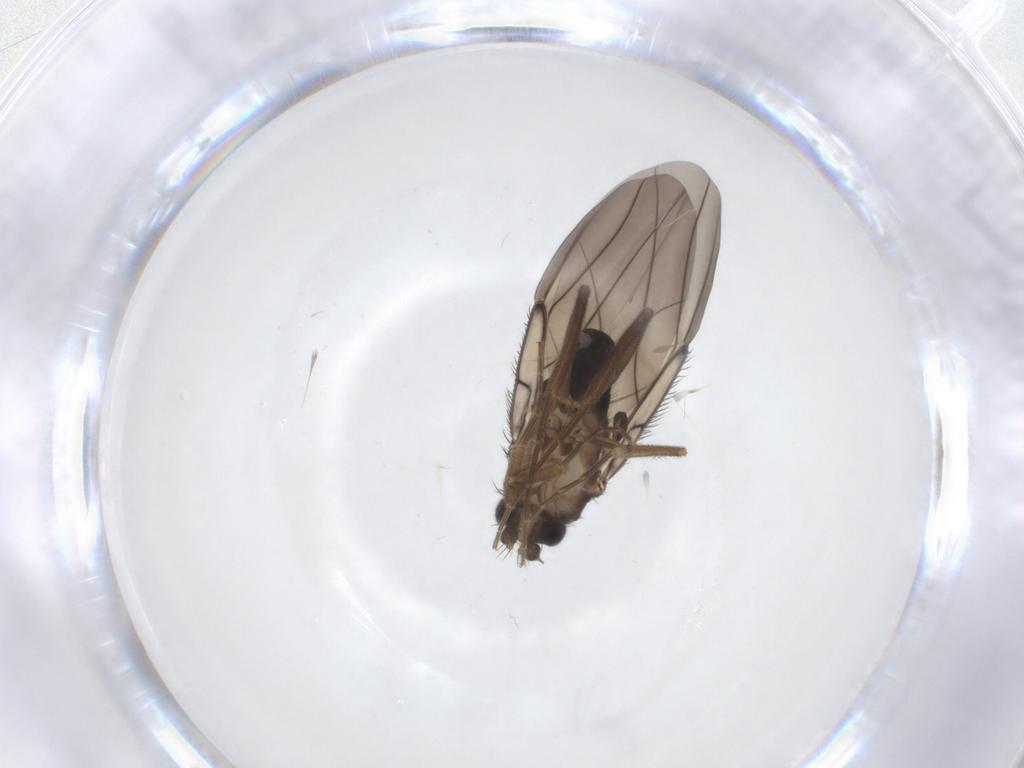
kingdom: Animalia
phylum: Arthropoda
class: Insecta
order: Diptera
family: Phoridae
